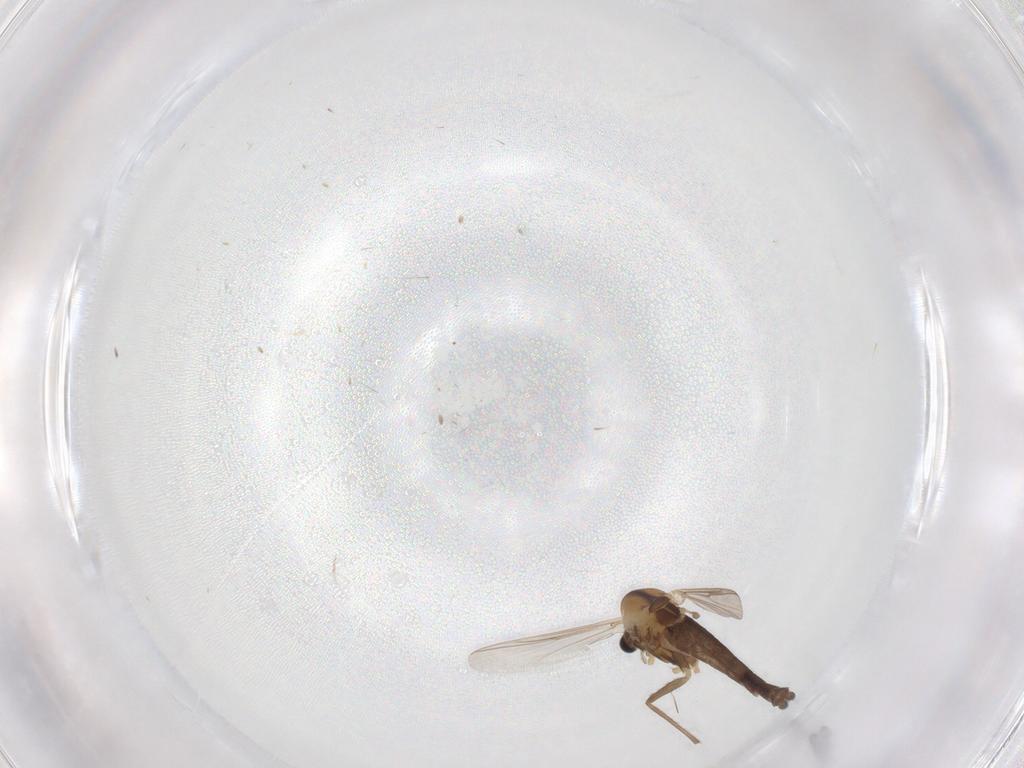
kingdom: Animalia
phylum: Arthropoda
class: Insecta
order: Diptera
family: Chironomidae
